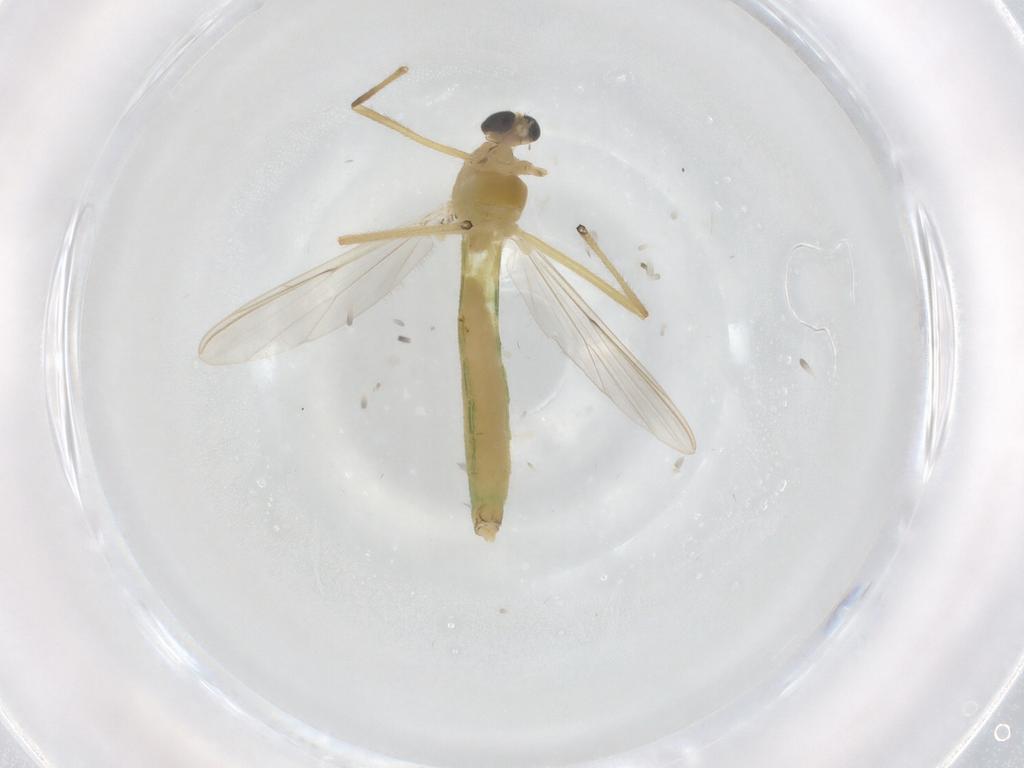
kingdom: Animalia
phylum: Arthropoda
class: Insecta
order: Diptera
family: Chironomidae
